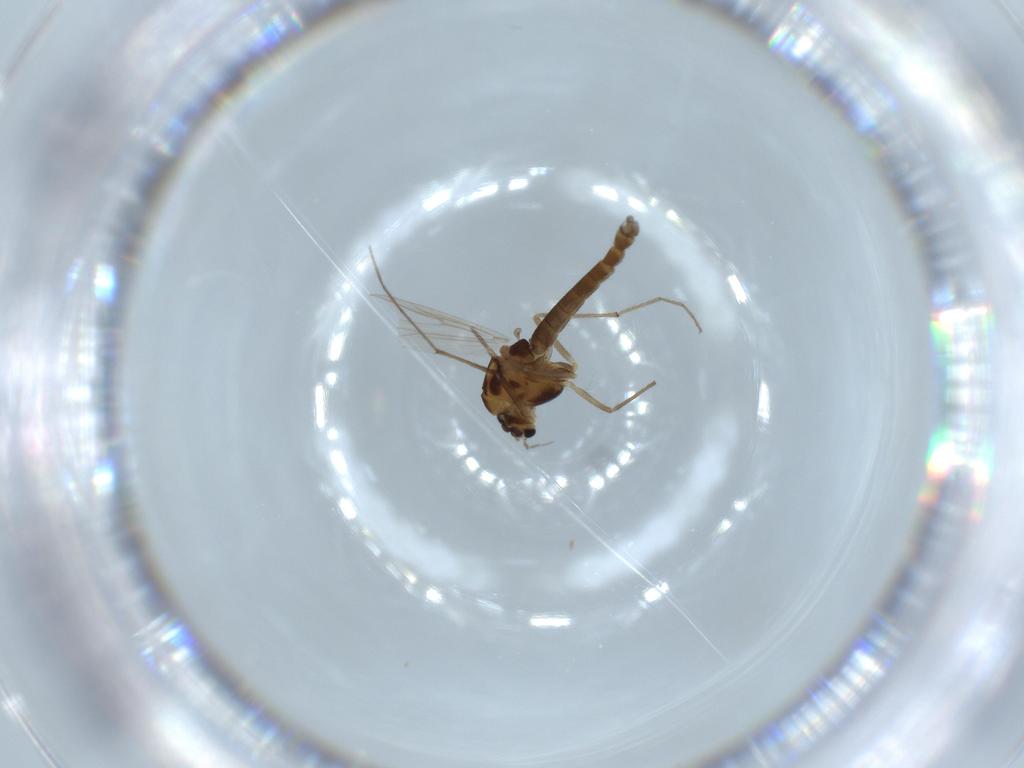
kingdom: Animalia
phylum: Arthropoda
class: Insecta
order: Diptera
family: Chironomidae
